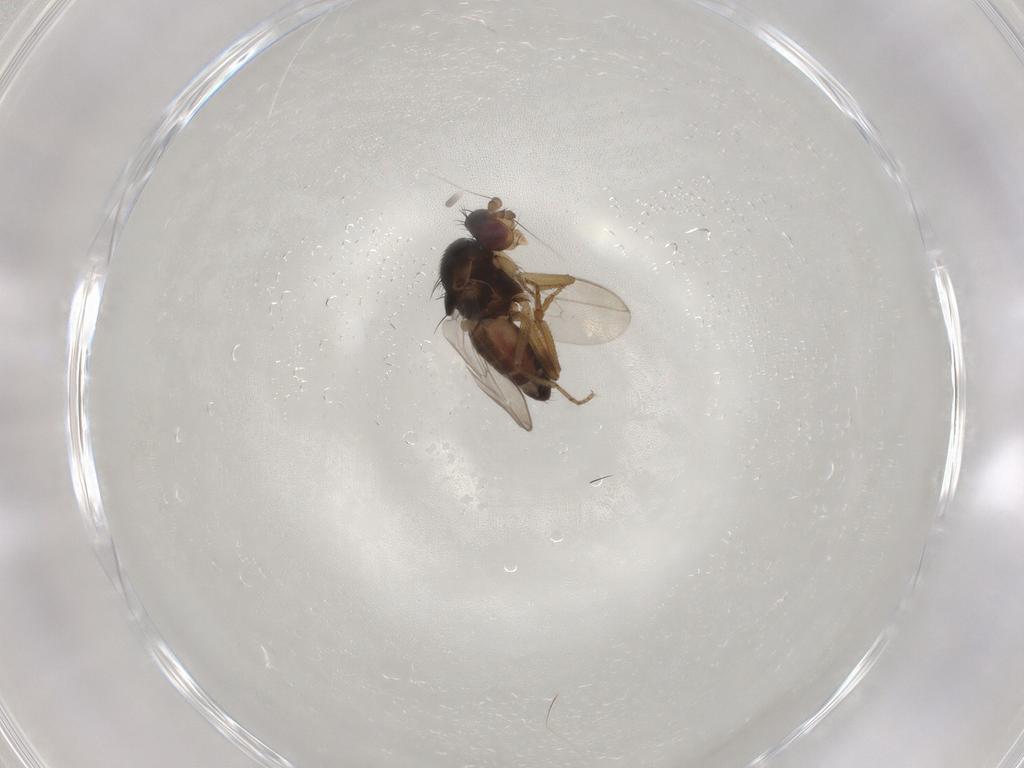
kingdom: Animalia
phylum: Arthropoda
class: Insecta
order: Diptera
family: Sphaeroceridae
